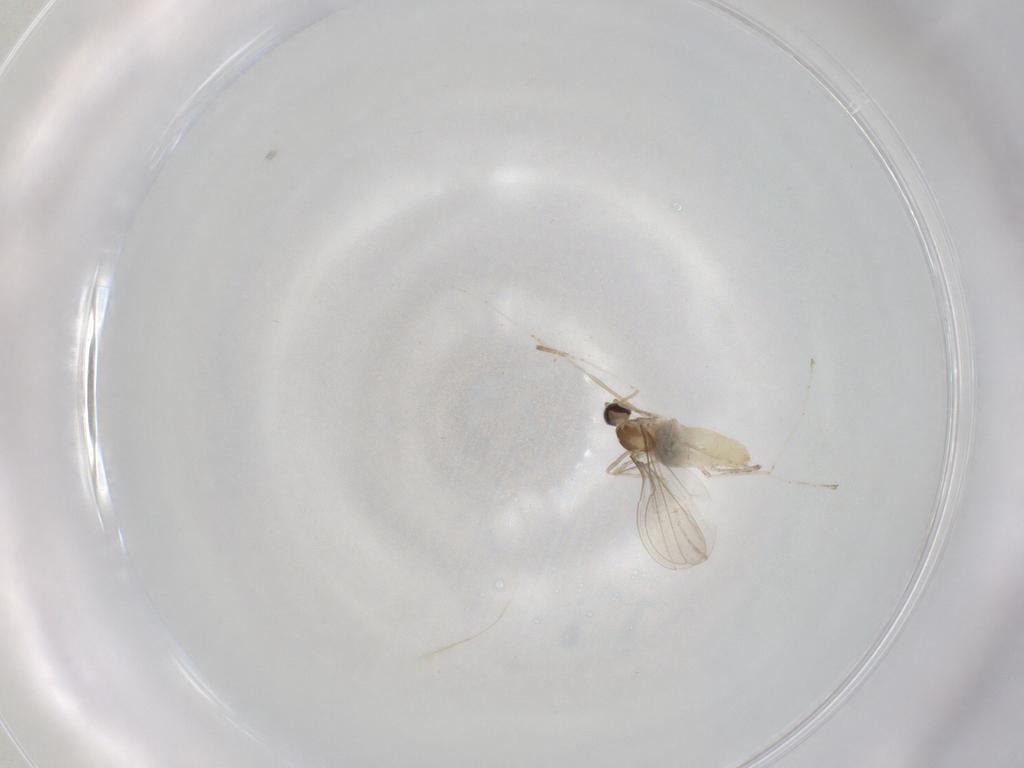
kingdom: Animalia
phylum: Arthropoda
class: Insecta
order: Diptera
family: Cecidomyiidae
